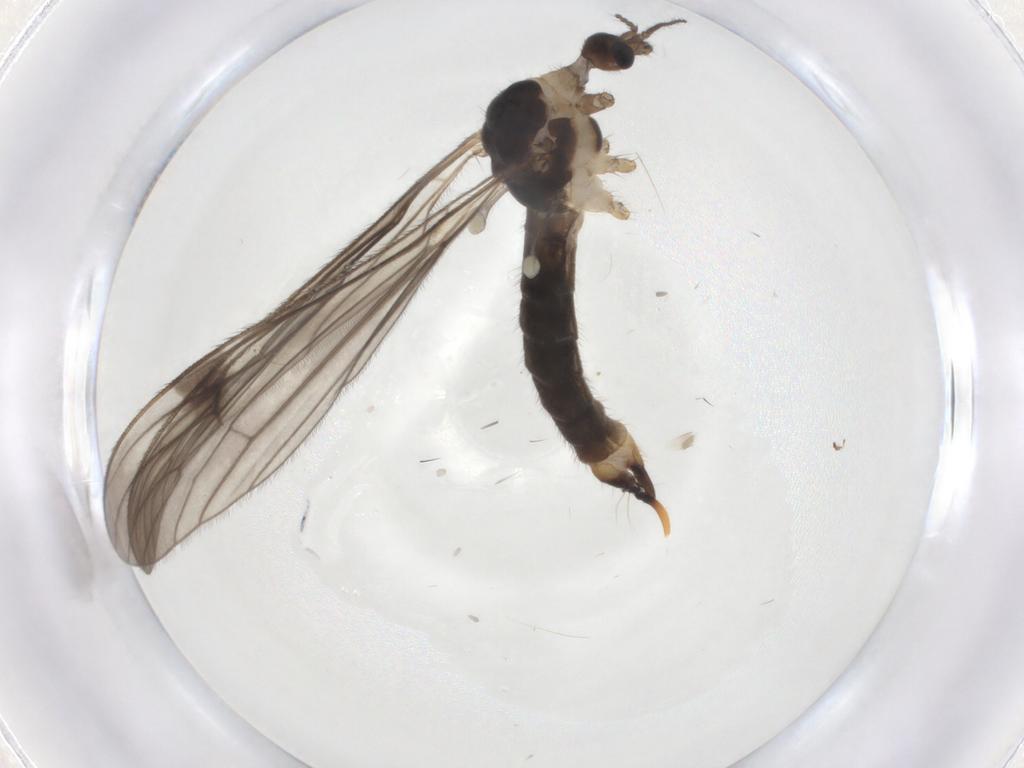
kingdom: Animalia
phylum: Arthropoda
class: Insecta
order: Diptera
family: Limoniidae
